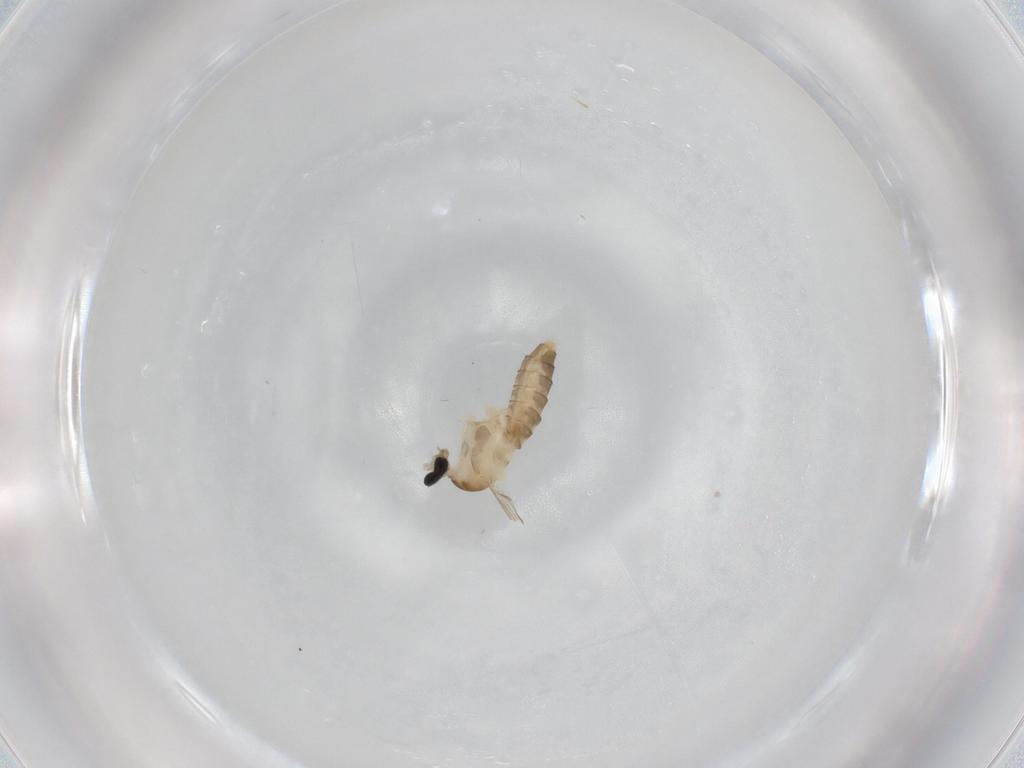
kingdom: Animalia
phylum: Arthropoda
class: Insecta
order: Diptera
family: Cecidomyiidae
